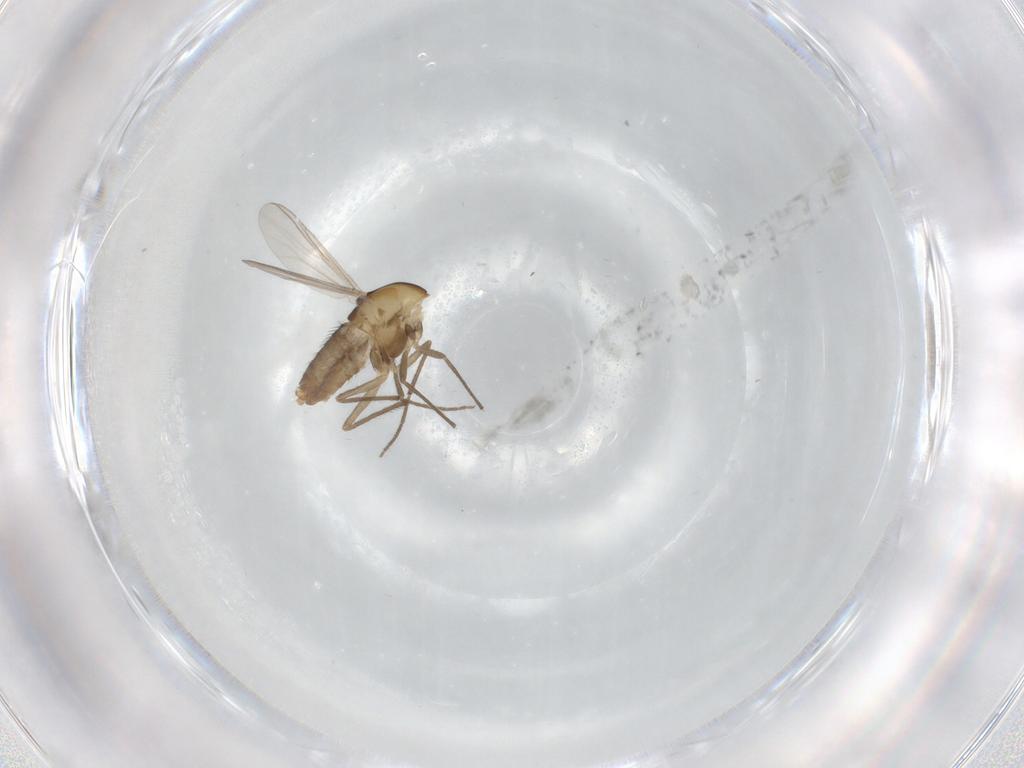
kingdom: Animalia
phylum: Arthropoda
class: Insecta
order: Diptera
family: Chironomidae
